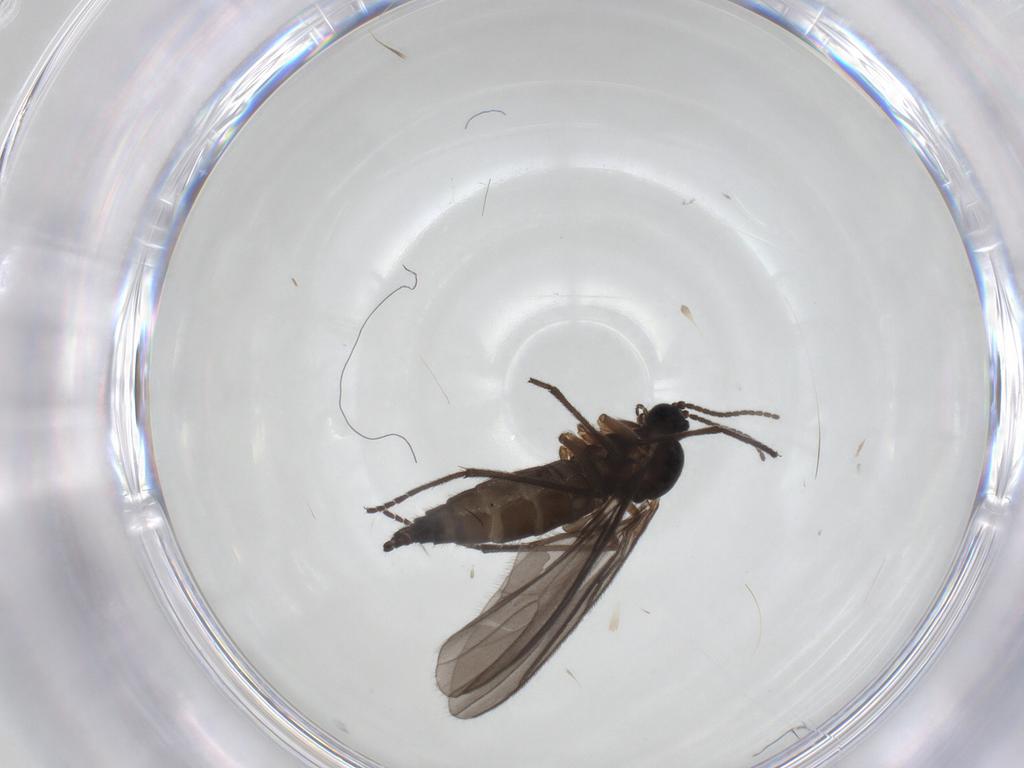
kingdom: Animalia
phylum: Arthropoda
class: Insecta
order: Diptera
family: Sciaridae
